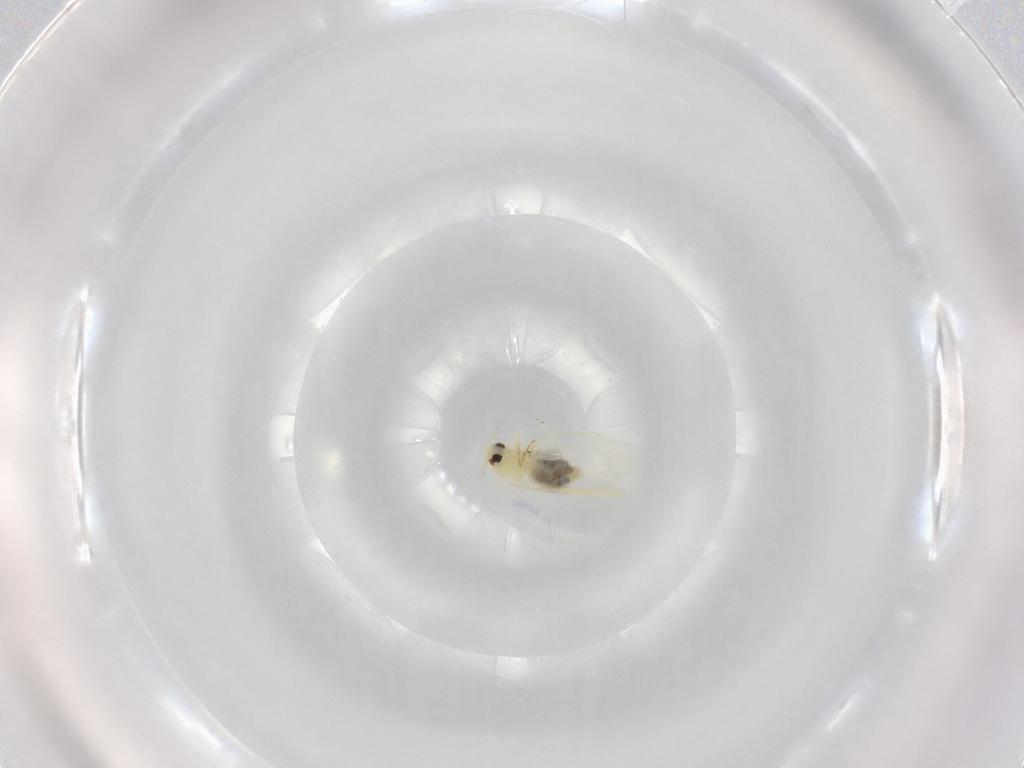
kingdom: Animalia
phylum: Arthropoda
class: Insecta
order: Hemiptera
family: Aleyrodidae
